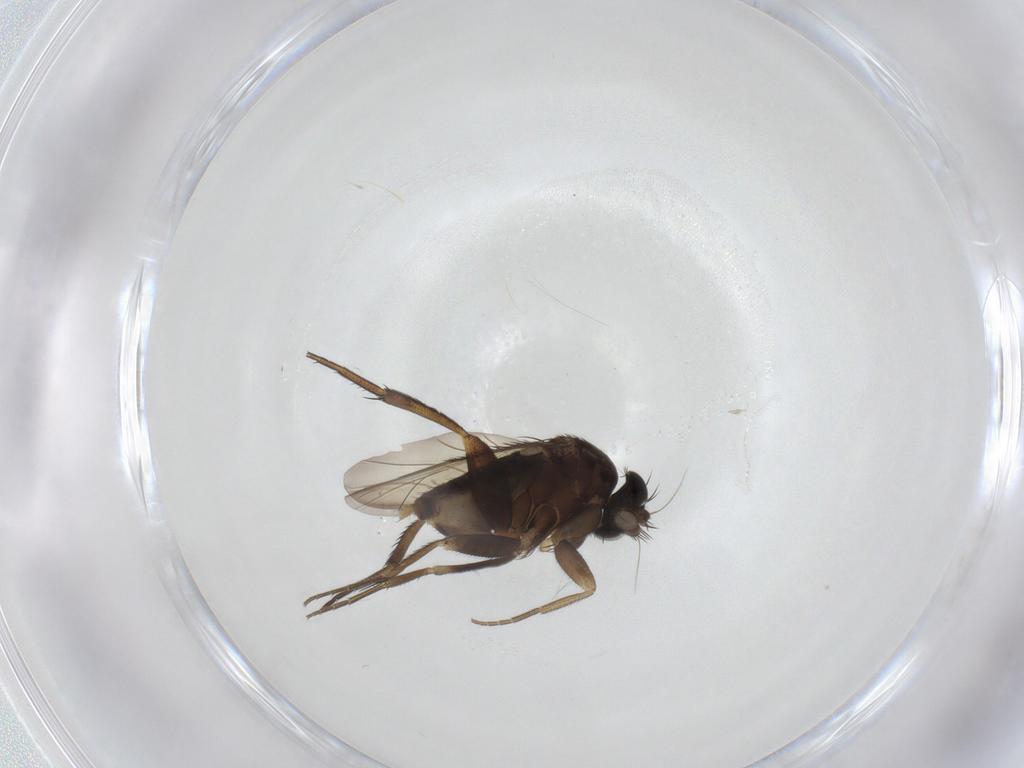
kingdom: Animalia
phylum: Arthropoda
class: Insecta
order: Diptera
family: Phoridae
